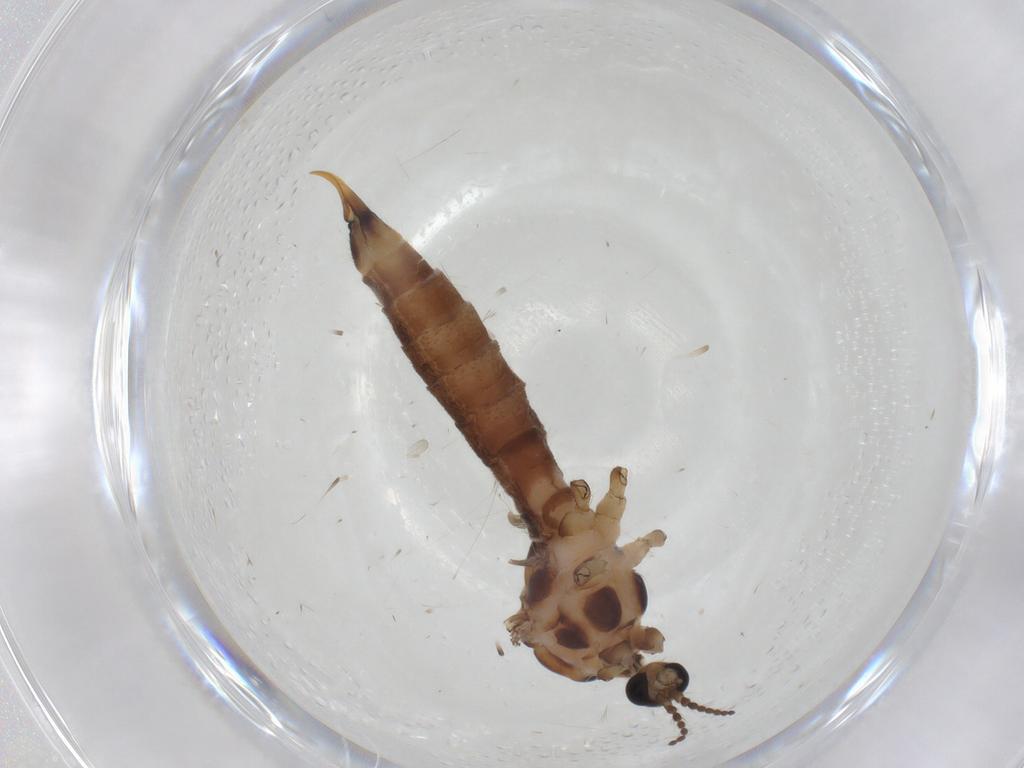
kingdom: Animalia
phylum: Arthropoda
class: Insecta
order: Diptera
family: Limoniidae
